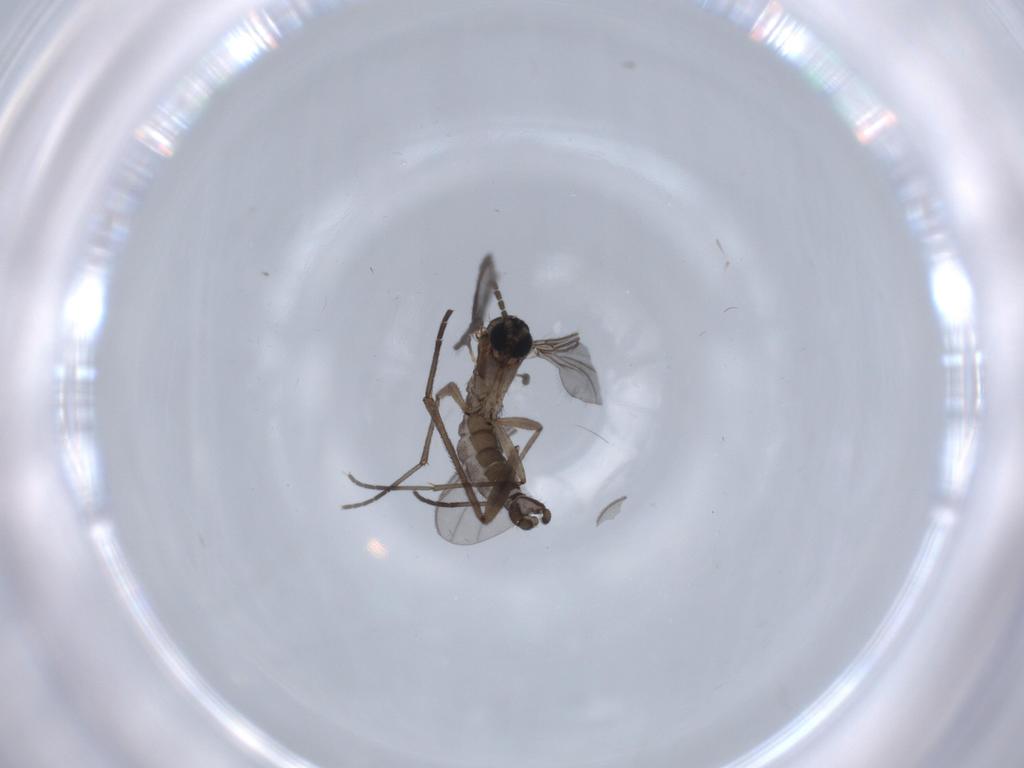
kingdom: Animalia
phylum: Arthropoda
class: Insecta
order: Diptera
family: Sciaridae
